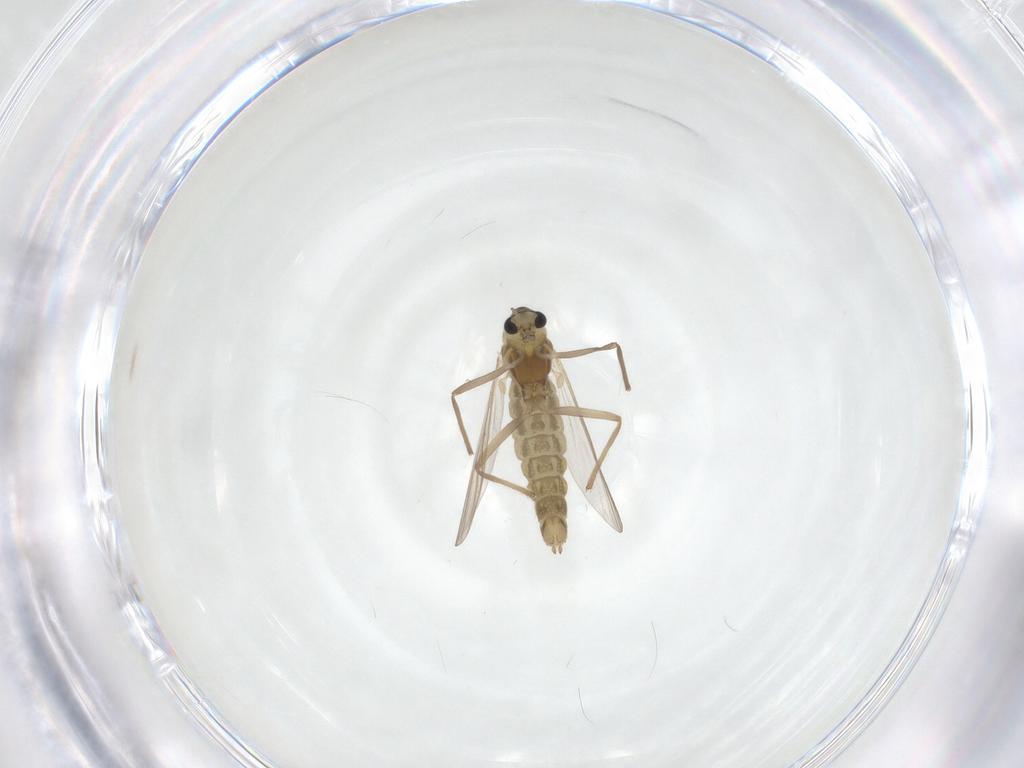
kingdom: Animalia
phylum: Arthropoda
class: Insecta
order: Diptera
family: Chironomidae
